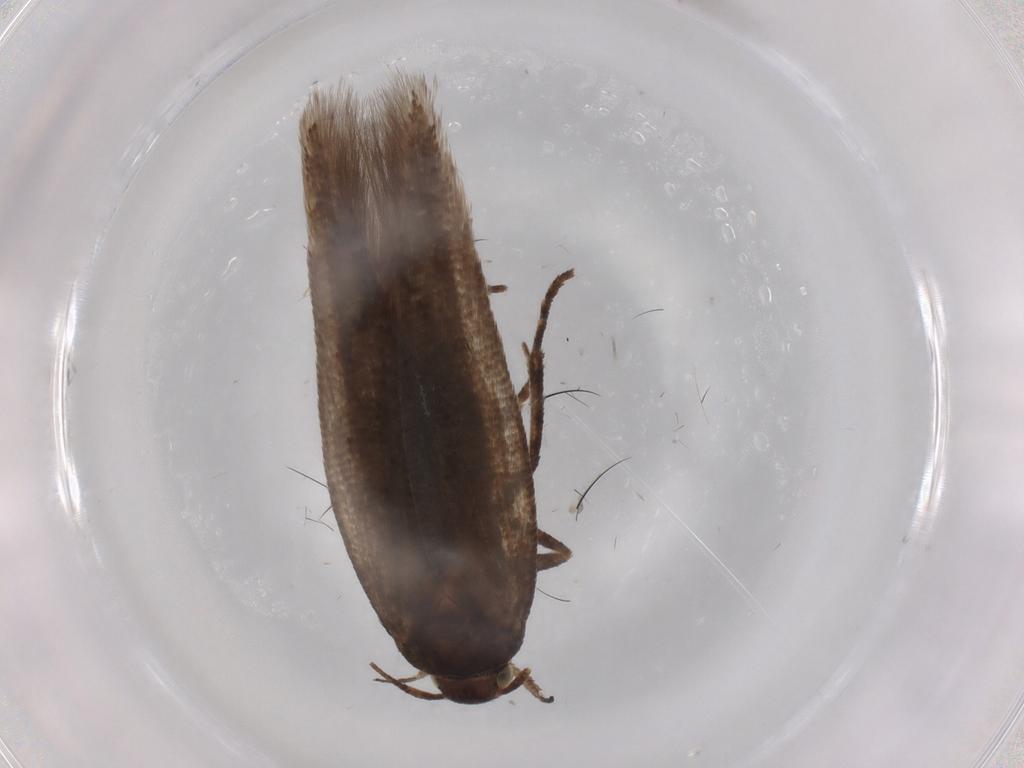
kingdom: Animalia
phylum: Arthropoda
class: Insecta
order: Lepidoptera
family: Gelechiidae
